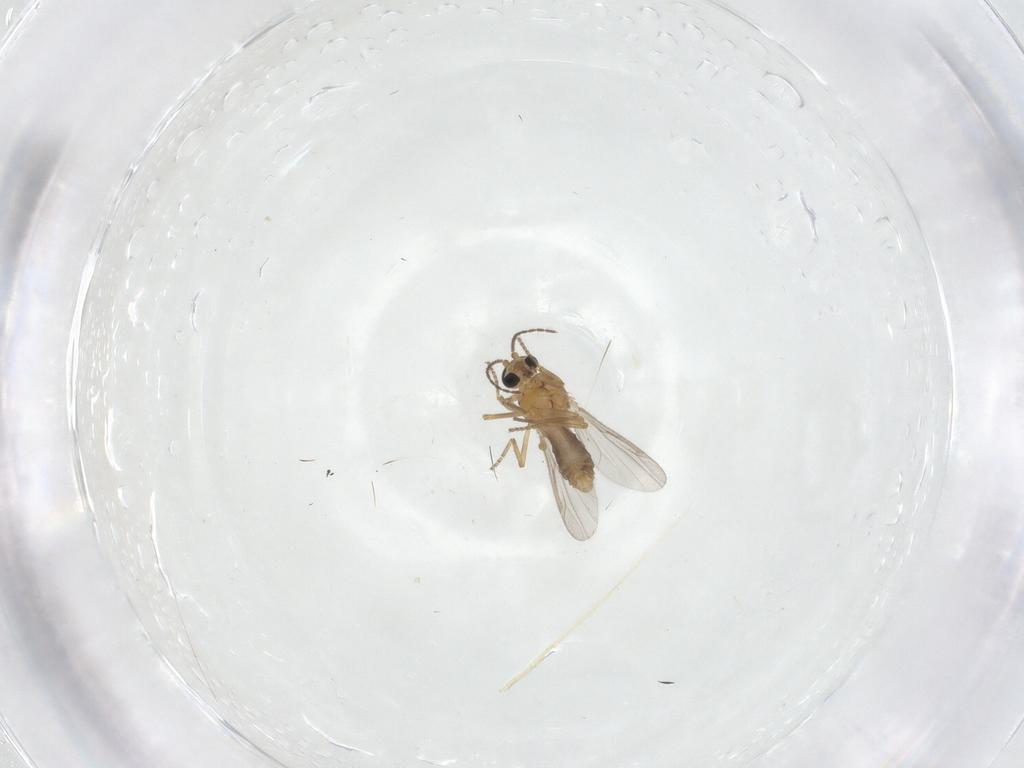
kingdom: Animalia
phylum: Arthropoda
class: Insecta
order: Diptera
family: Ceratopogonidae
